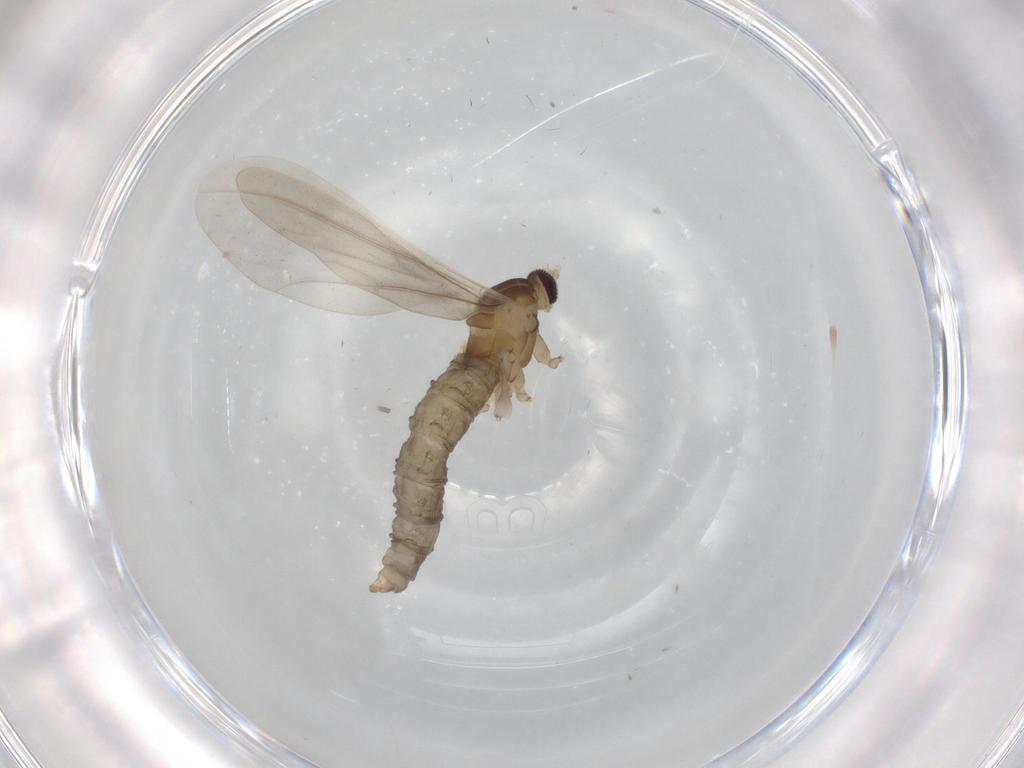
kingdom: Animalia
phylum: Arthropoda
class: Insecta
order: Diptera
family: Cecidomyiidae
